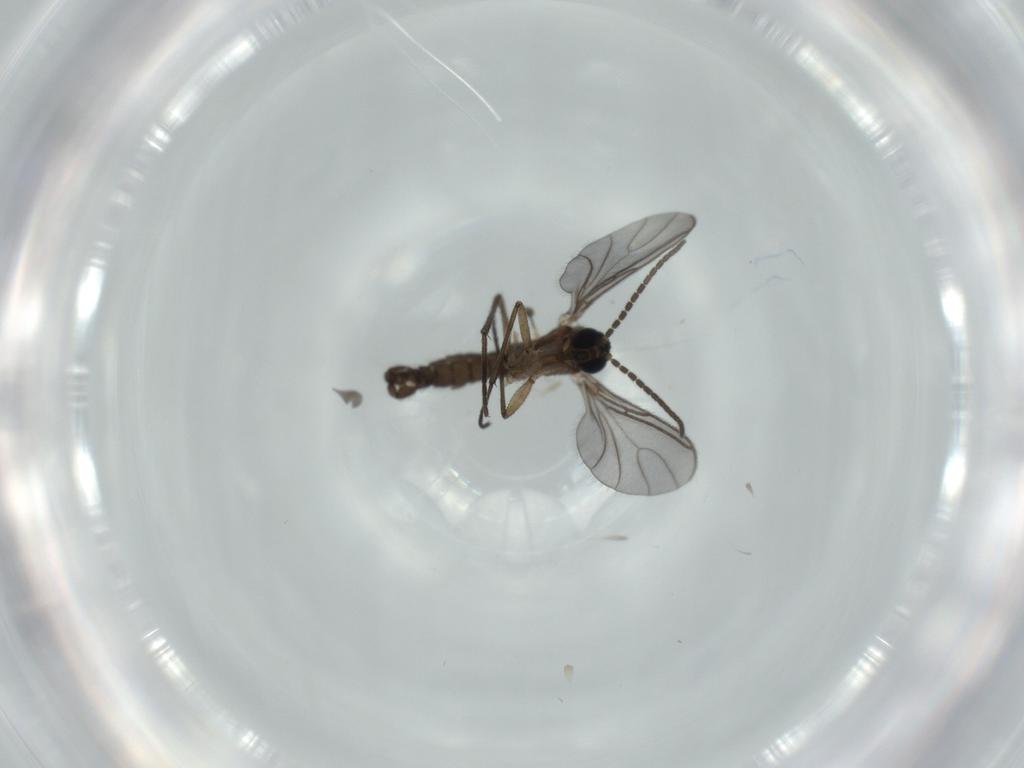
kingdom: Animalia
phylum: Arthropoda
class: Insecta
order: Diptera
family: Sciaridae
